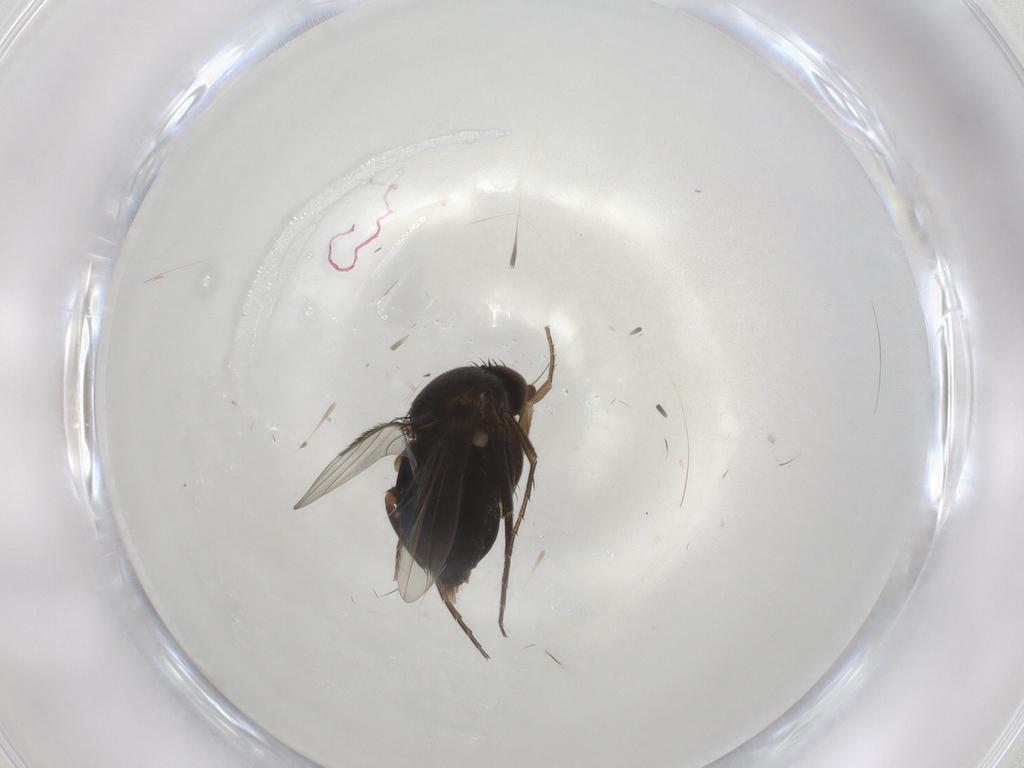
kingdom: Animalia
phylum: Arthropoda
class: Insecta
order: Diptera
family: Phoridae
